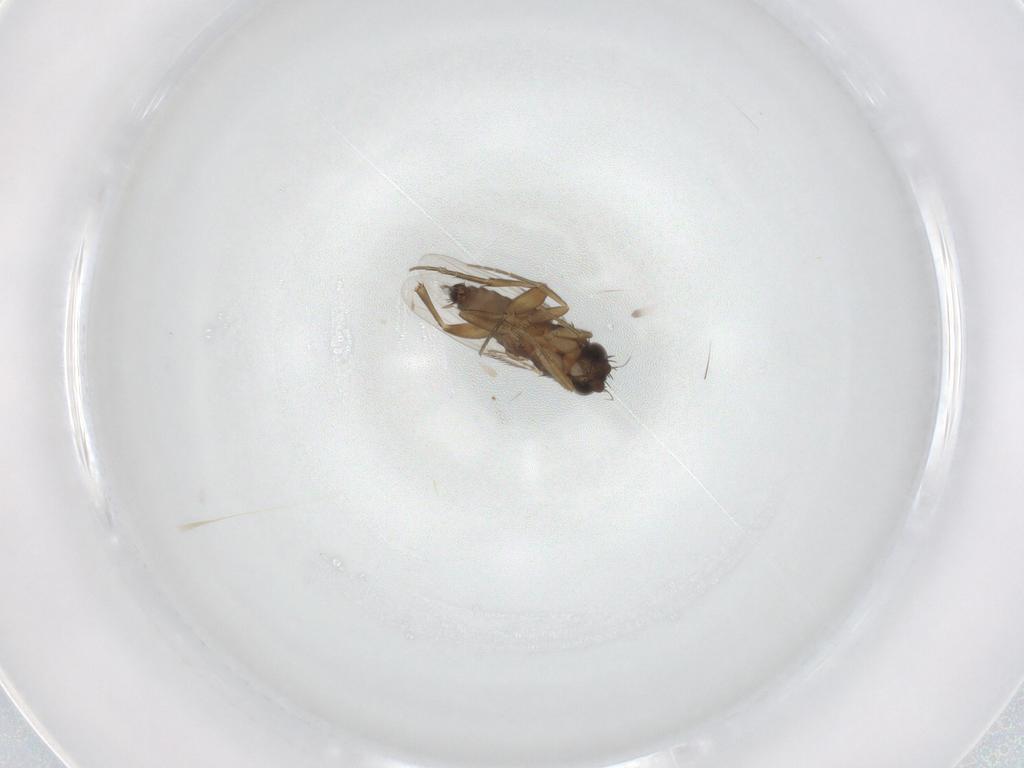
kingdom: Animalia
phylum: Arthropoda
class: Insecta
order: Diptera
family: Phoridae
